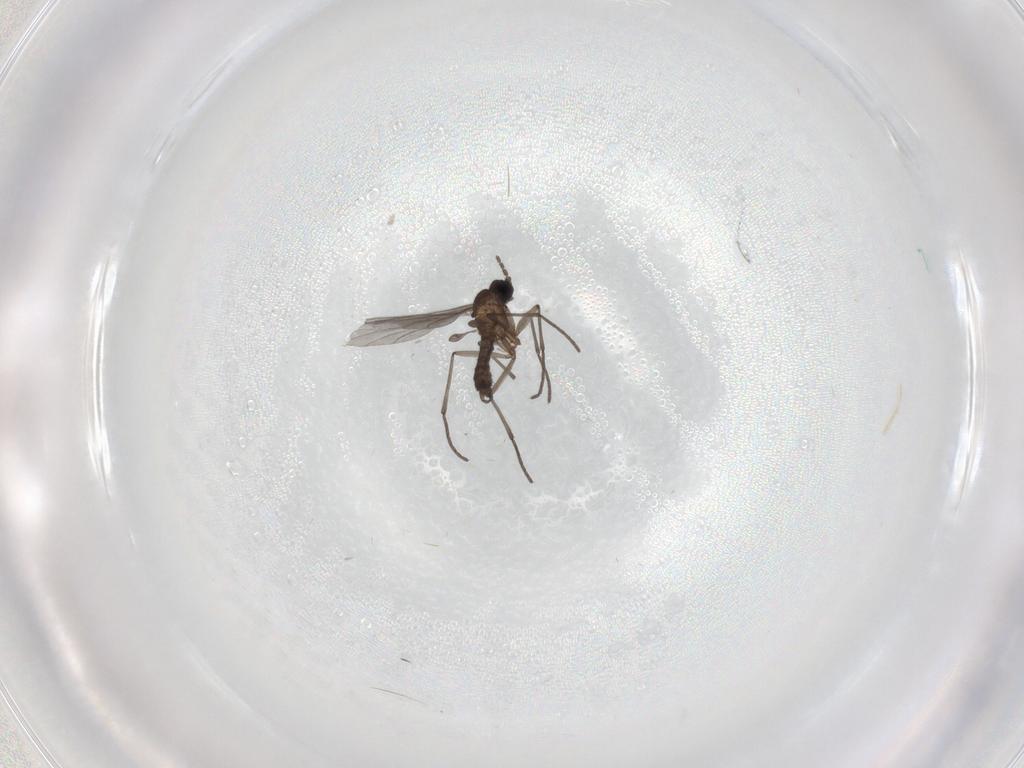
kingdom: Animalia
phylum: Arthropoda
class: Insecta
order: Diptera
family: Sciaridae
